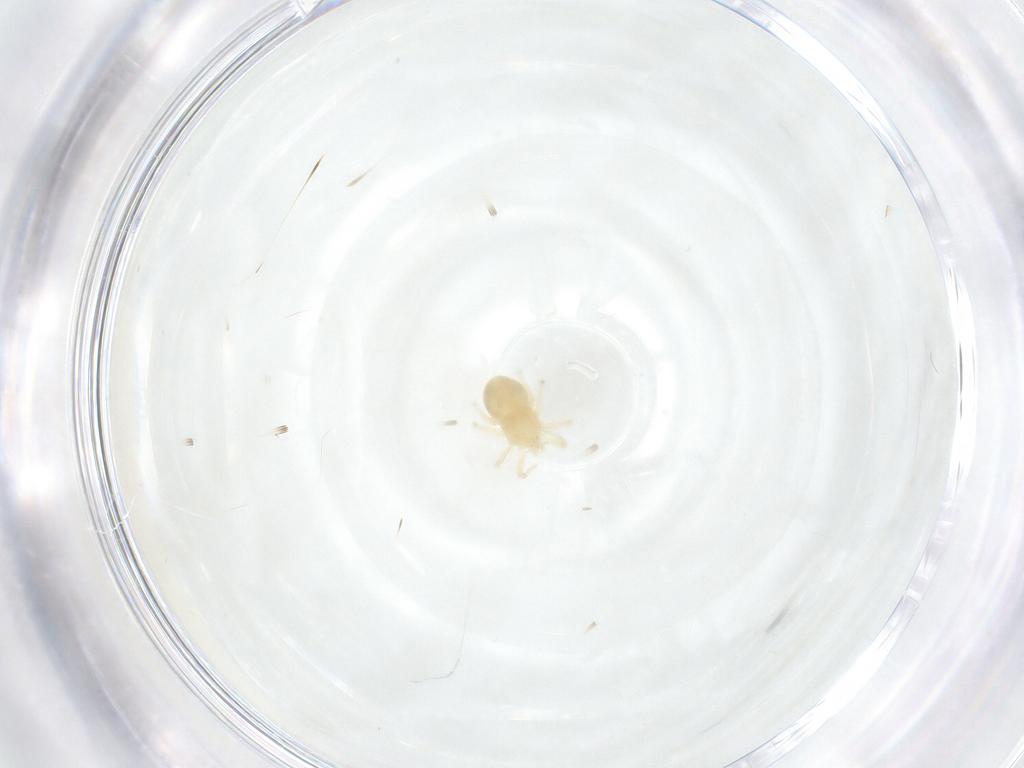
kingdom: Animalia
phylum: Arthropoda
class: Arachnida
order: Trombidiformes
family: Anystidae
